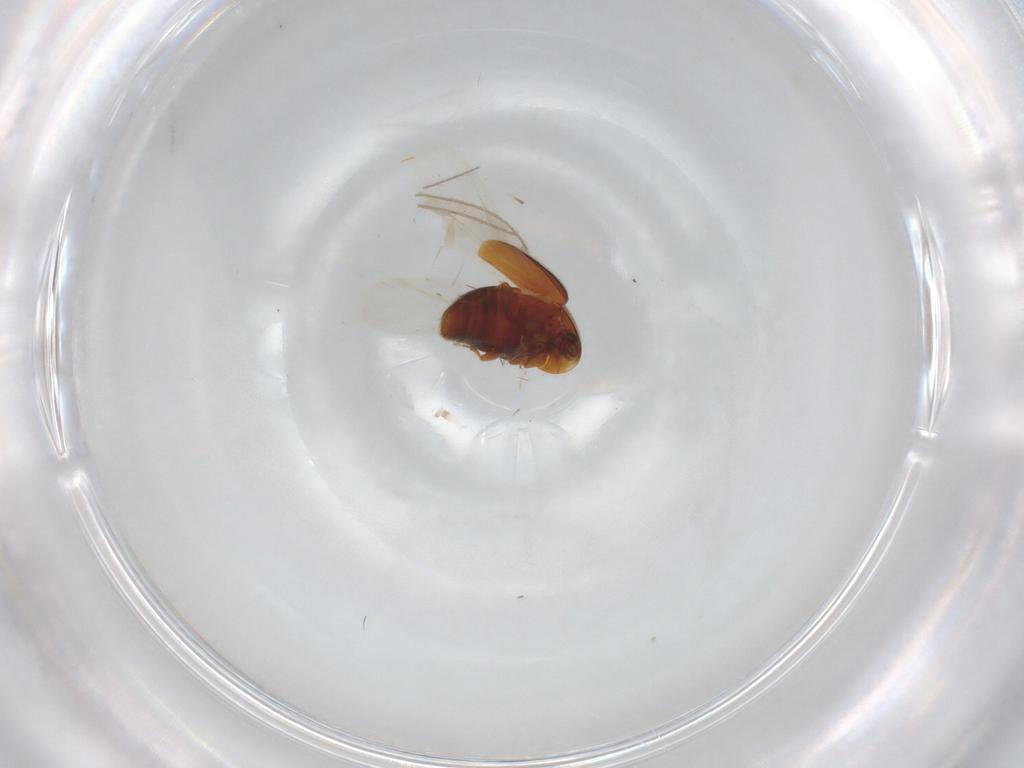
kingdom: Animalia
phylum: Arthropoda
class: Insecta
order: Coleoptera
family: Corylophidae
